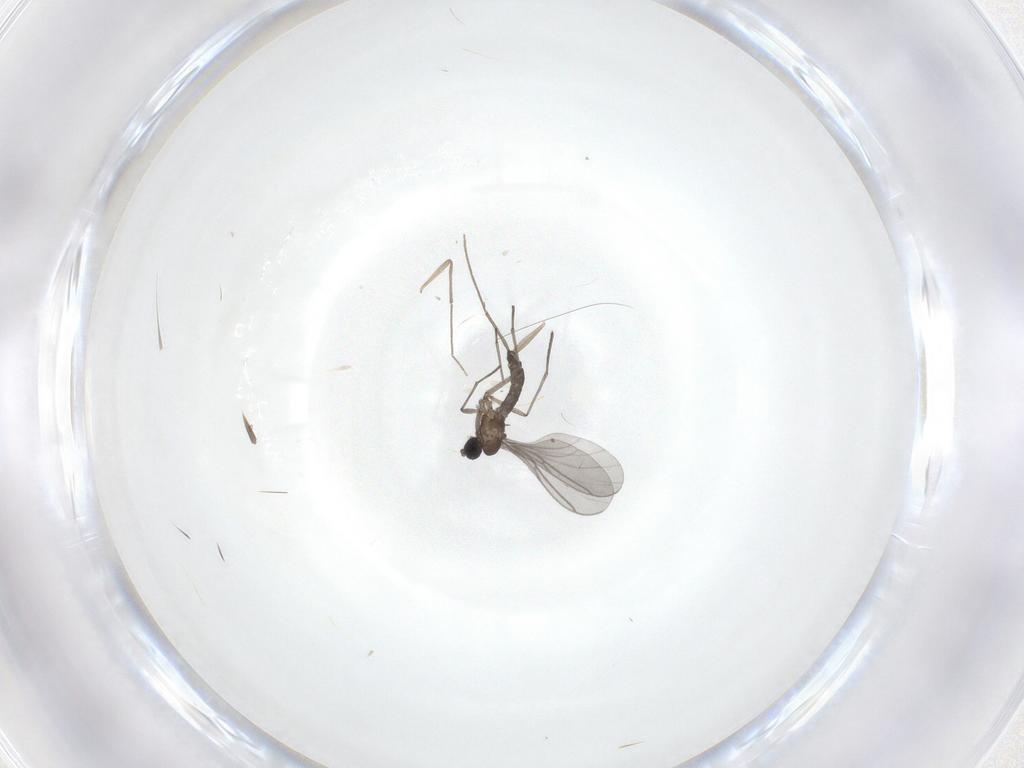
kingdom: Animalia
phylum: Arthropoda
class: Insecta
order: Diptera
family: Chironomidae
